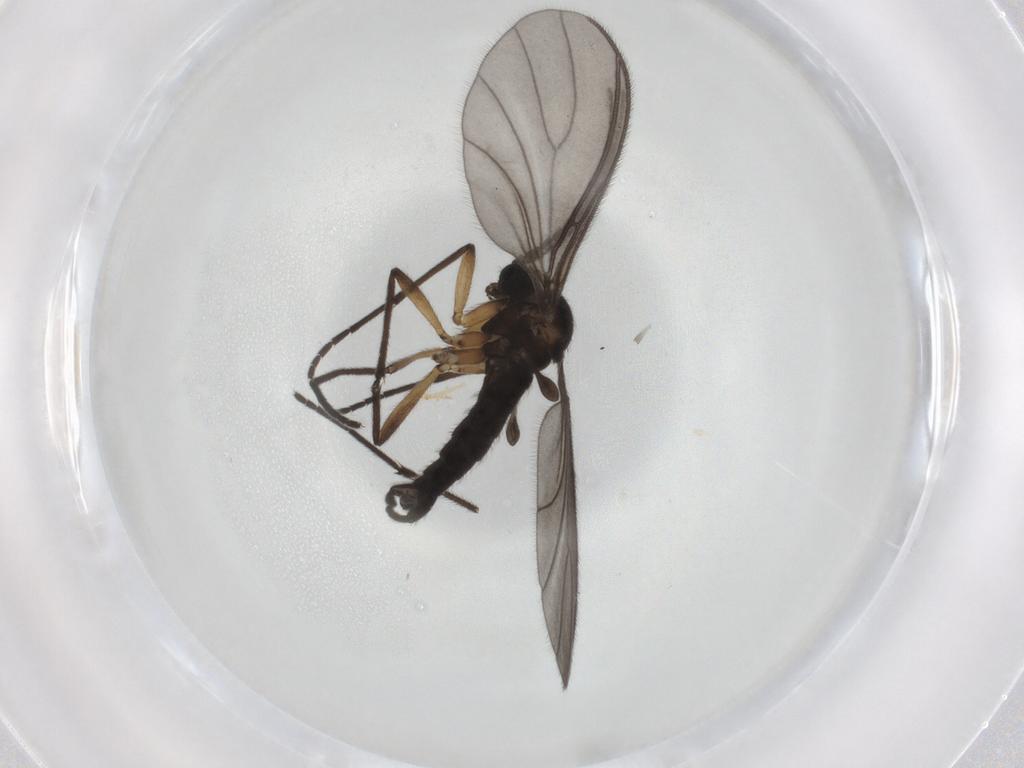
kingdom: Animalia
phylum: Arthropoda
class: Insecta
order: Diptera
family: Sciaridae
